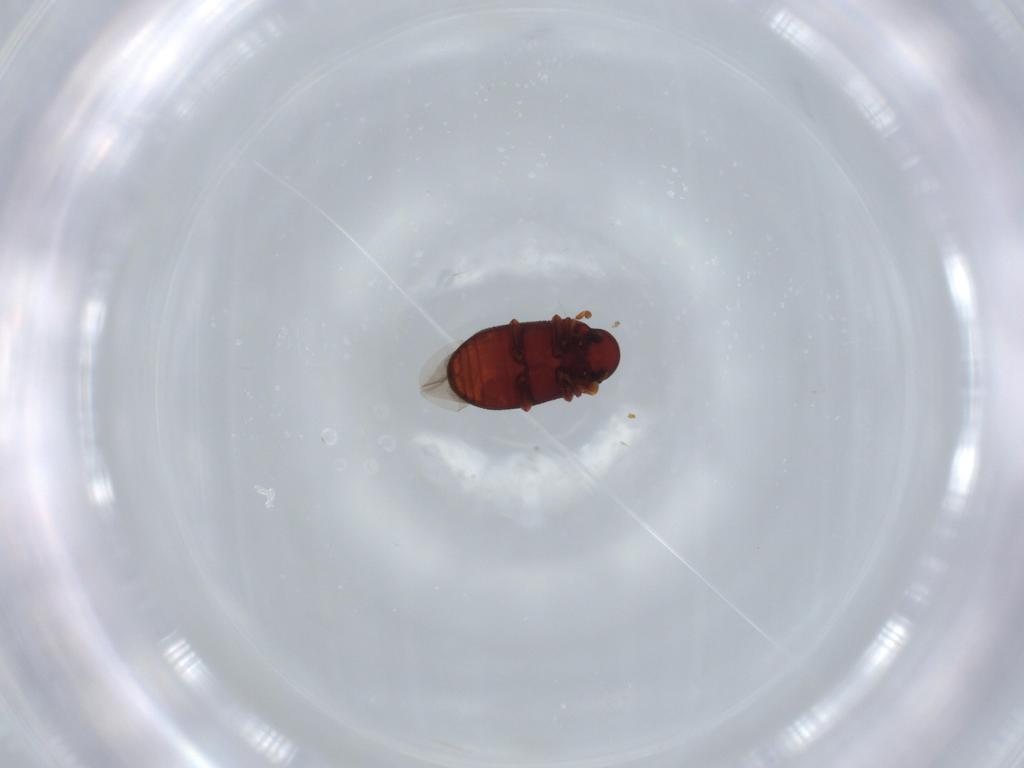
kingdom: Animalia
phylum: Arthropoda
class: Insecta
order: Coleoptera
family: Ptinidae
